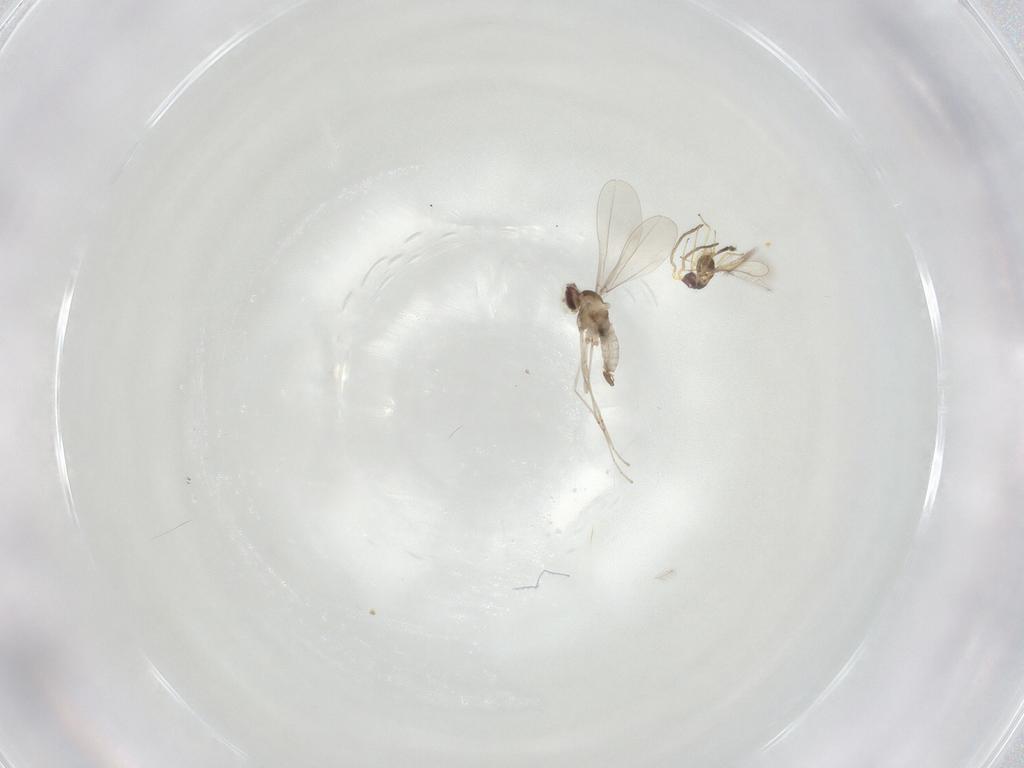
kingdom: Animalia
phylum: Arthropoda
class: Insecta
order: Diptera
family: Cecidomyiidae
